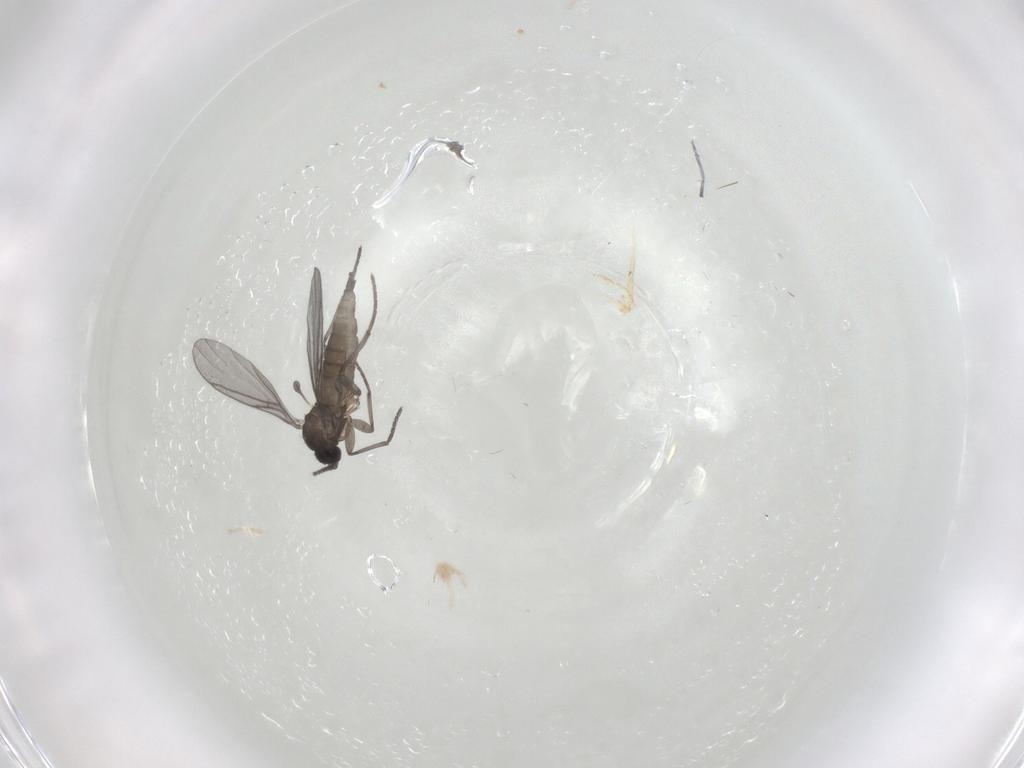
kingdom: Animalia
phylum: Arthropoda
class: Insecta
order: Diptera
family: Sciaridae
